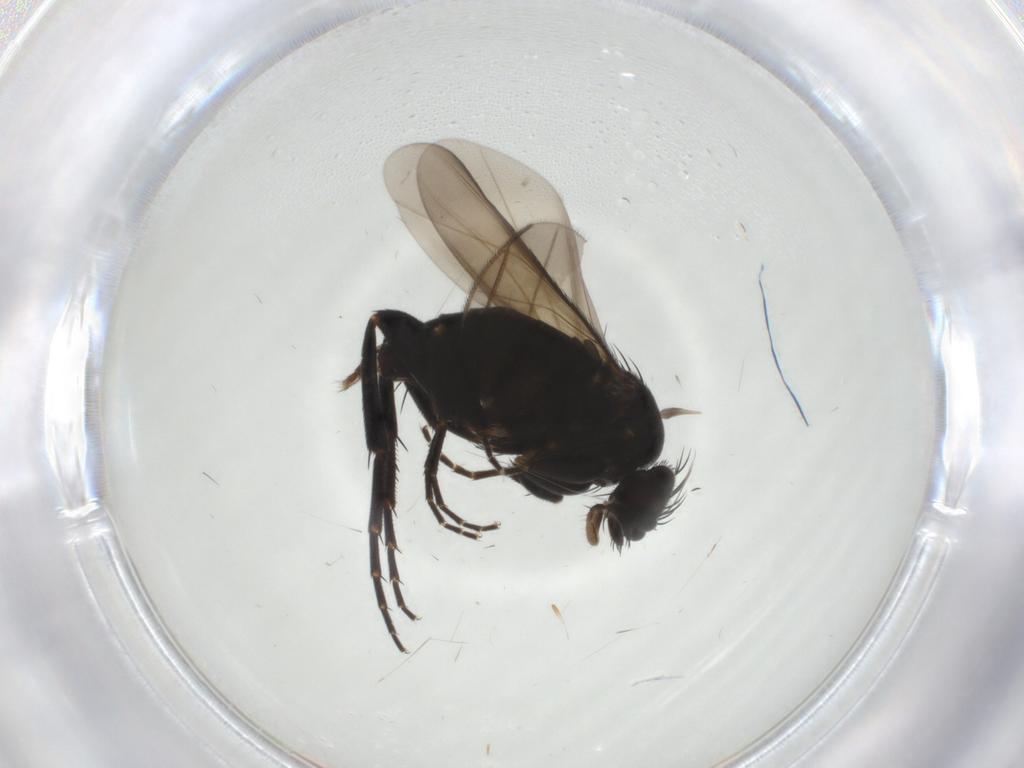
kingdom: Animalia
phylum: Arthropoda
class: Insecta
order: Diptera
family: Phoridae
